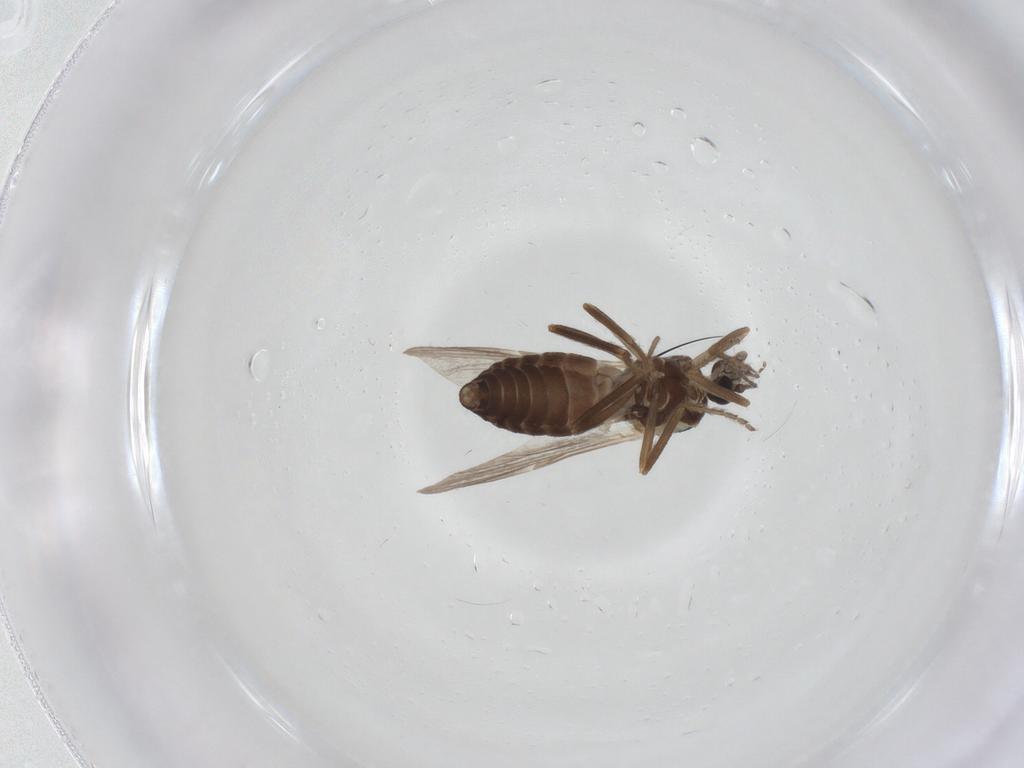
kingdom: Animalia
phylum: Arthropoda
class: Insecta
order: Diptera
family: Ceratopogonidae
